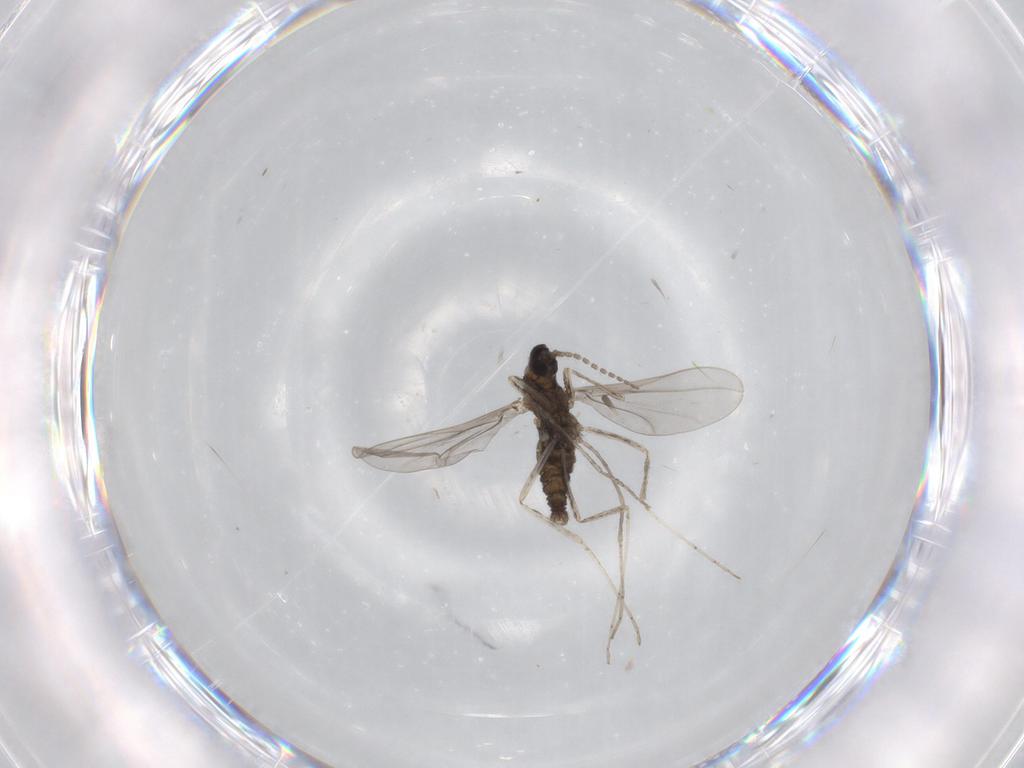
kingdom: Animalia
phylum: Arthropoda
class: Insecta
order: Diptera
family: Cecidomyiidae
